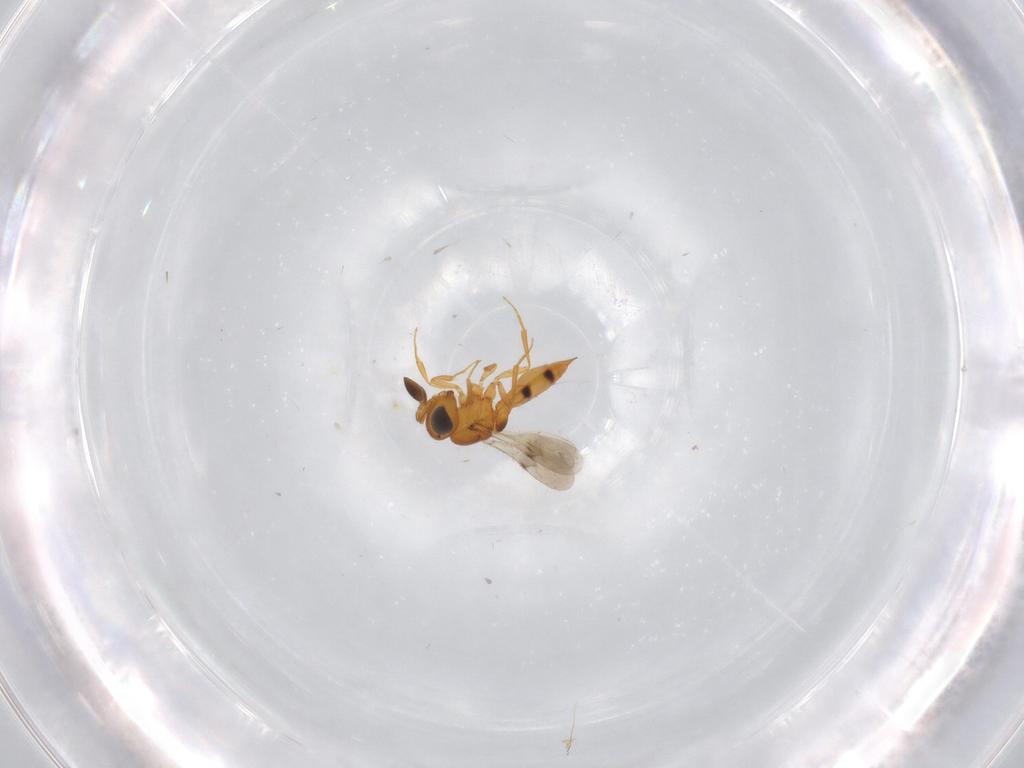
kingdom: Animalia
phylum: Arthropoda
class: Insecta
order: Hymenoptera
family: Scelionidae
